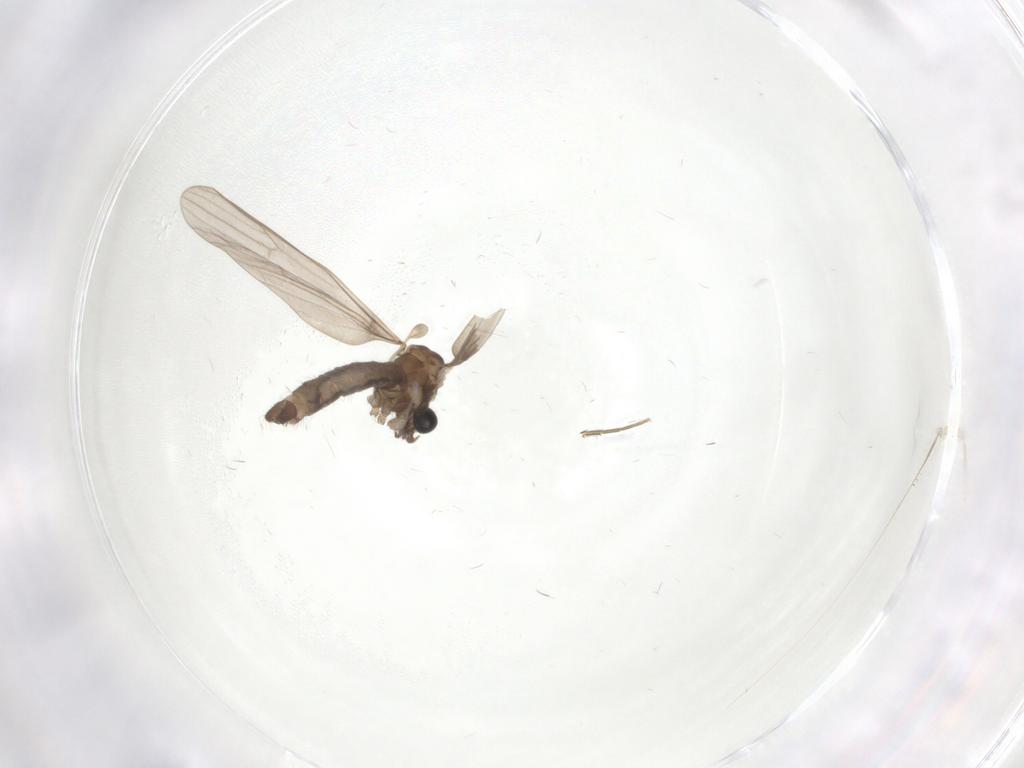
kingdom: Animalia
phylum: Arthropoda
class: Insecta
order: Diptera
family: Limoniidae
